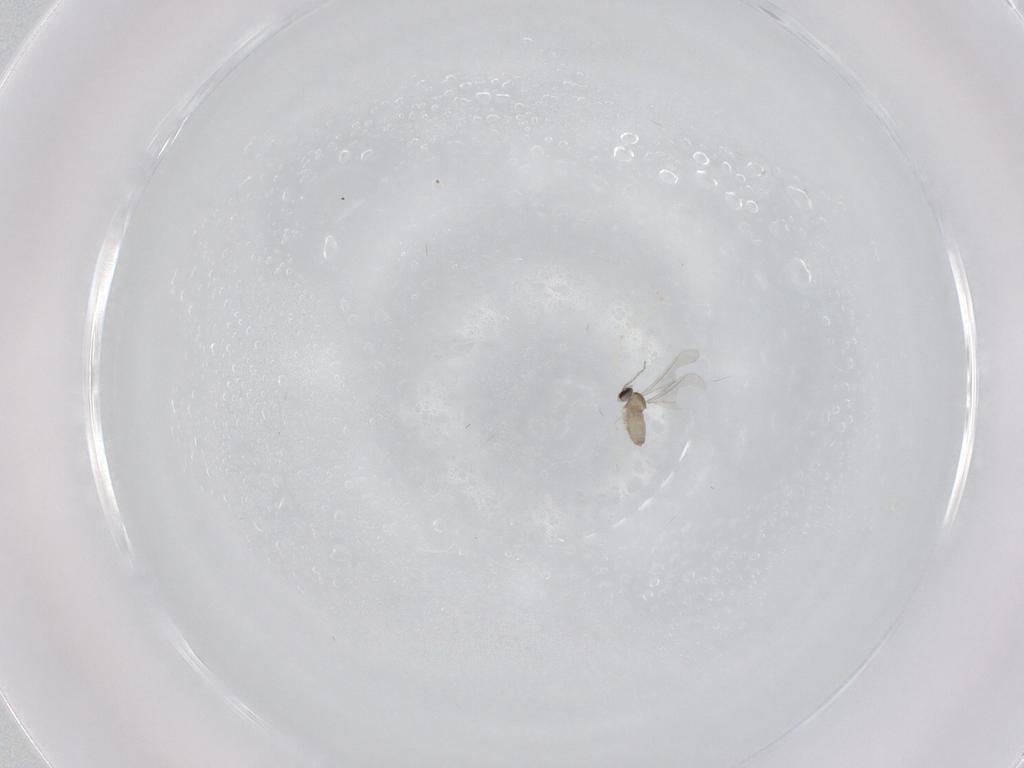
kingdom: Animalia
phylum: Arthropoda
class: Insecta
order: Diptera
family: Cecidomyiidae
